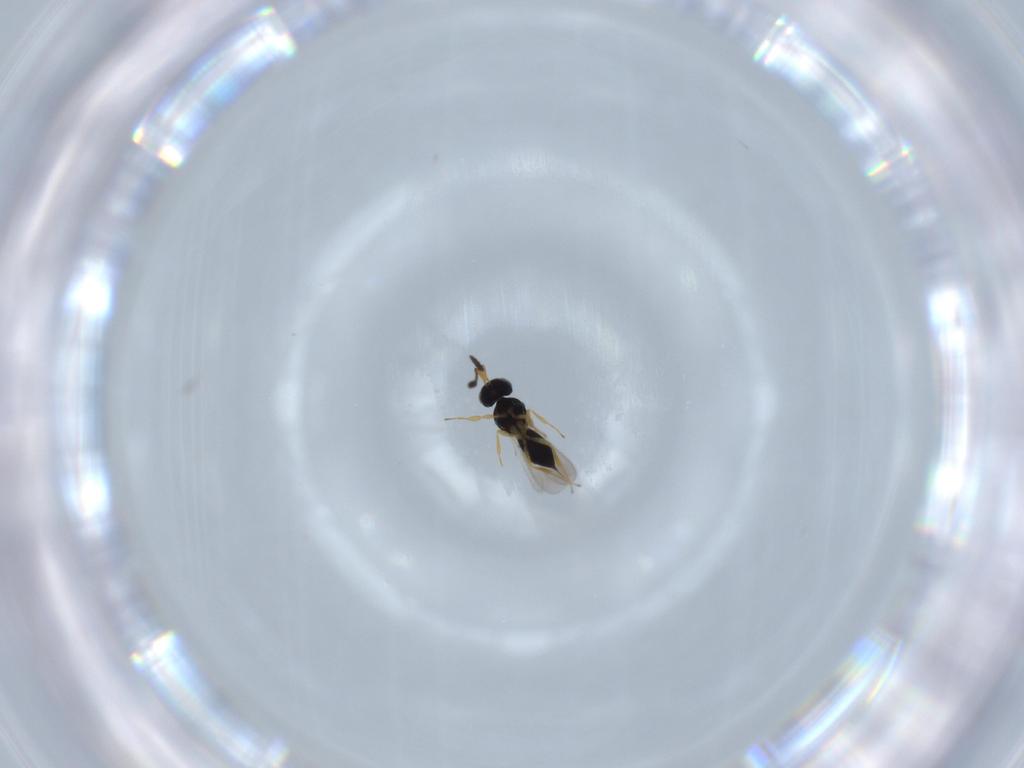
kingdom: Animalia
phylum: Arthropoda
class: Insecta
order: Hymenoptera
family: Scelionidae
